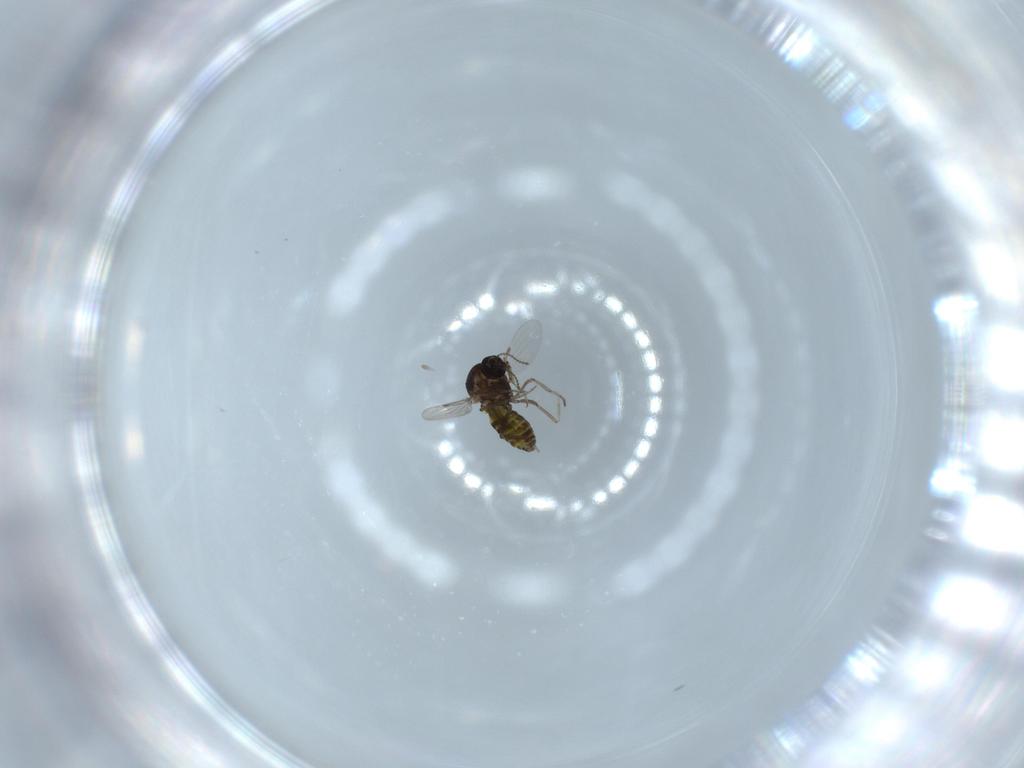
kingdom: Animalia
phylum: Arthropoda
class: Insecta
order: Diptera
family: Ceratopogonidae
